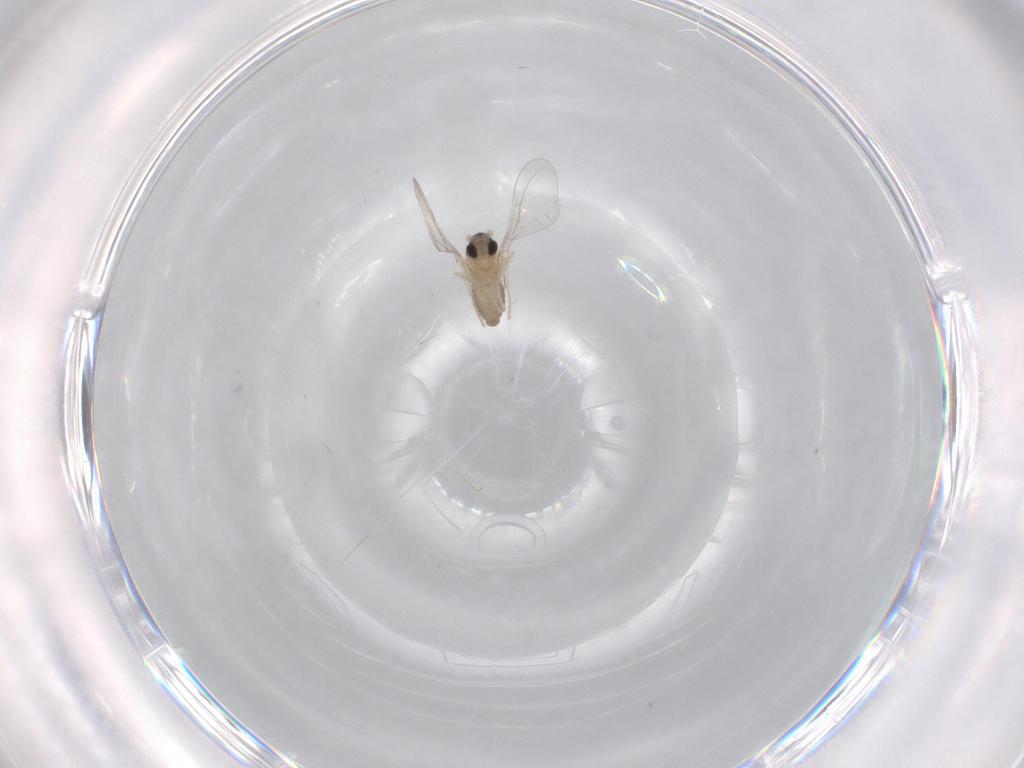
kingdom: Animalia
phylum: Arthropoda
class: Insecta
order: Diptera
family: Cecidomyiidae
